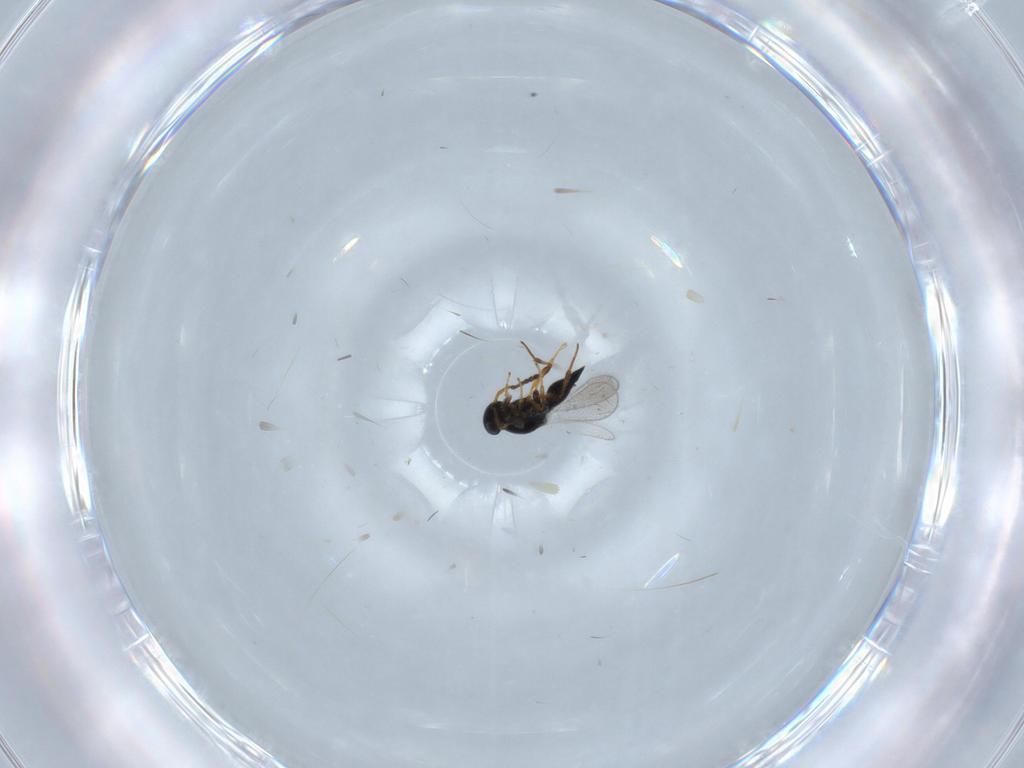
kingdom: Animalia
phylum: Arthropoda
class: Insecta
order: Hymenoptera
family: Platygastridae
